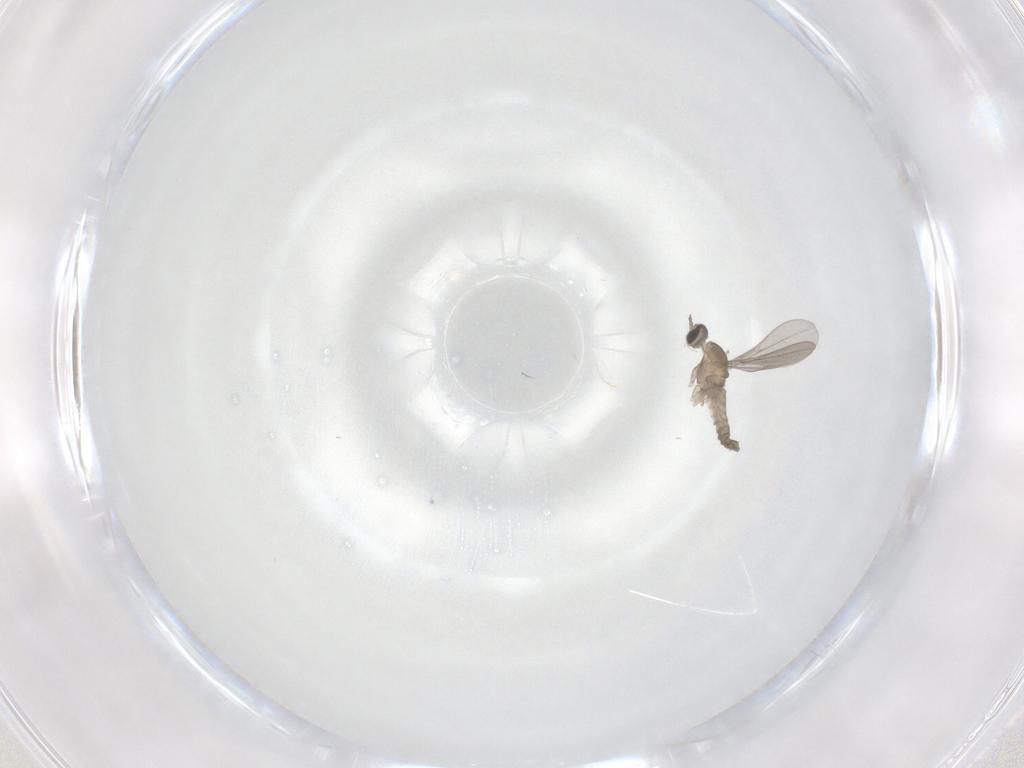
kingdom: Animalia
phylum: Arthropoda
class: Insecta
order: Diptera
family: Cecidomyiidae
